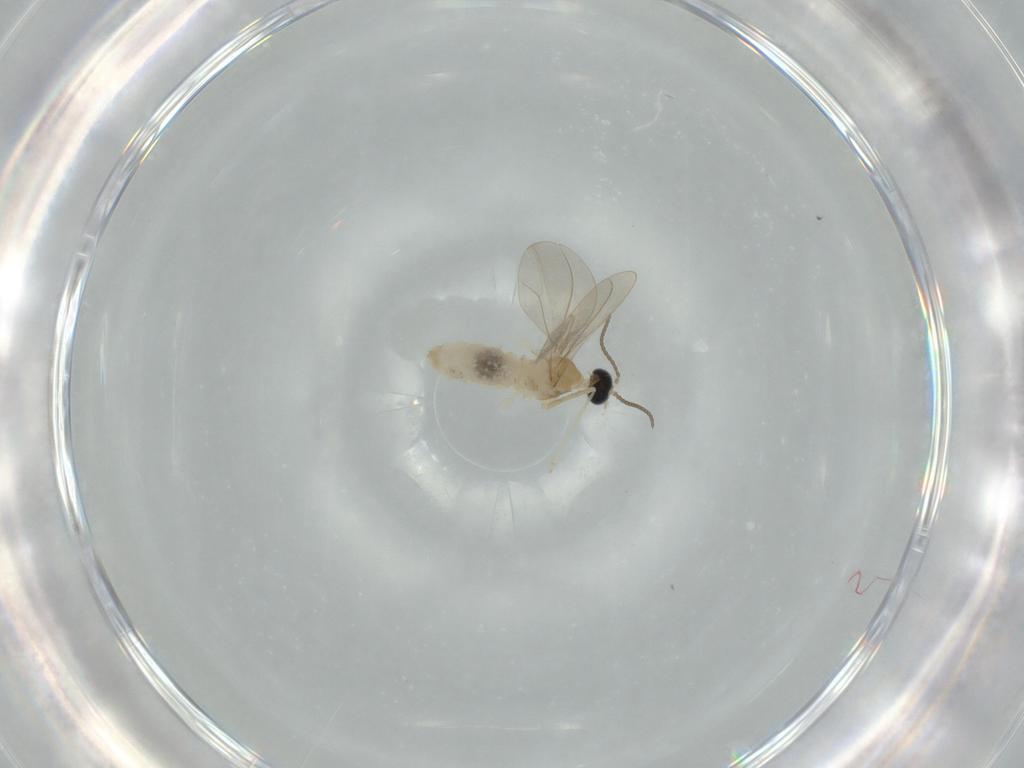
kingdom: Animalia
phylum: Arthropoda
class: Insecta
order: Diptera
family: Cecidomyiidae
